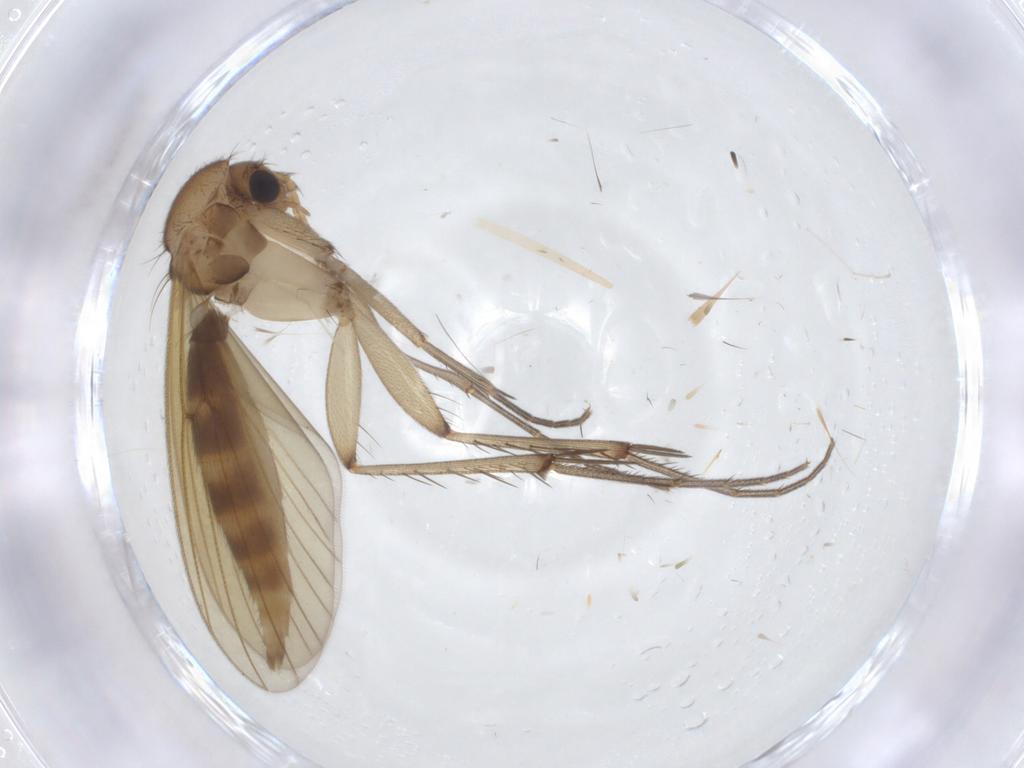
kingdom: Animalia
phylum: Arthropoda
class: Insecta
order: Diptera
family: Mycetophilidae
